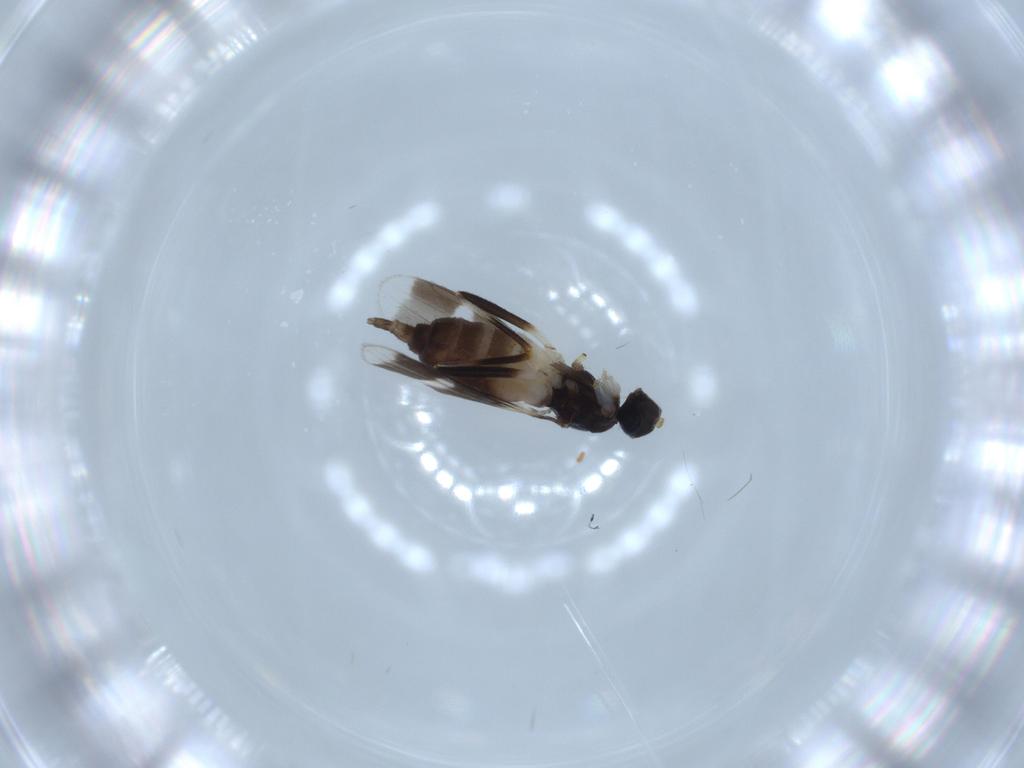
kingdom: Animalia
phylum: Arthropoda
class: Insecta
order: Diptera
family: Hybotidae
